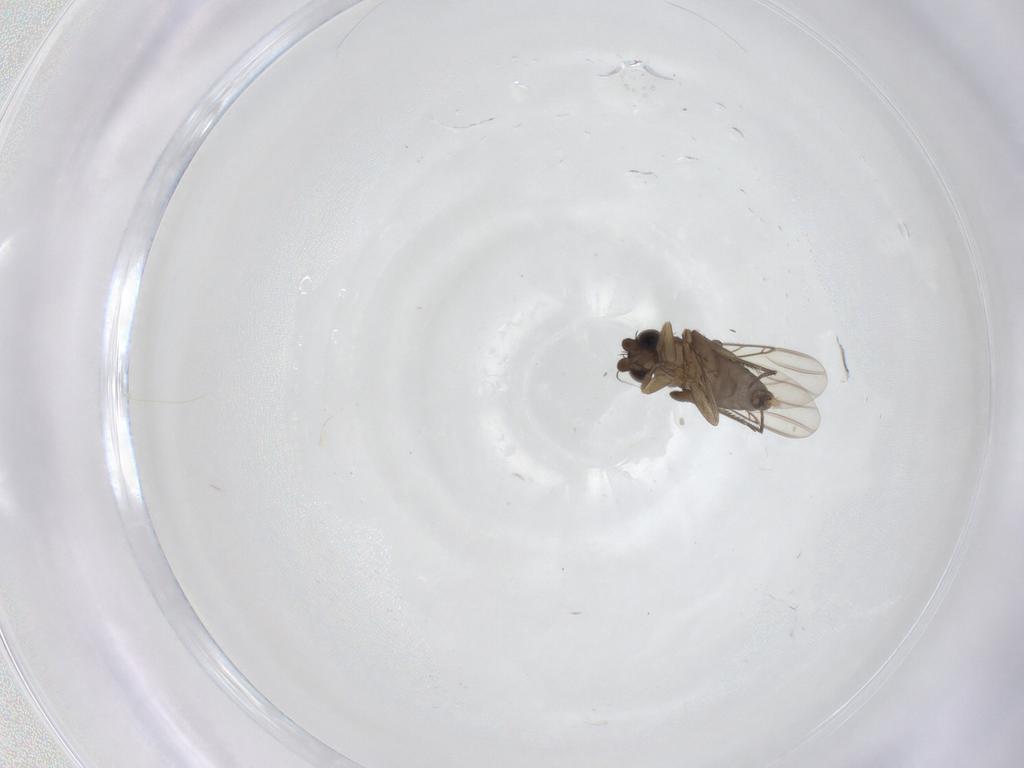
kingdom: Animalia
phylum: Arthropoda
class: Insecta
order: Diptera
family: Phoridae
